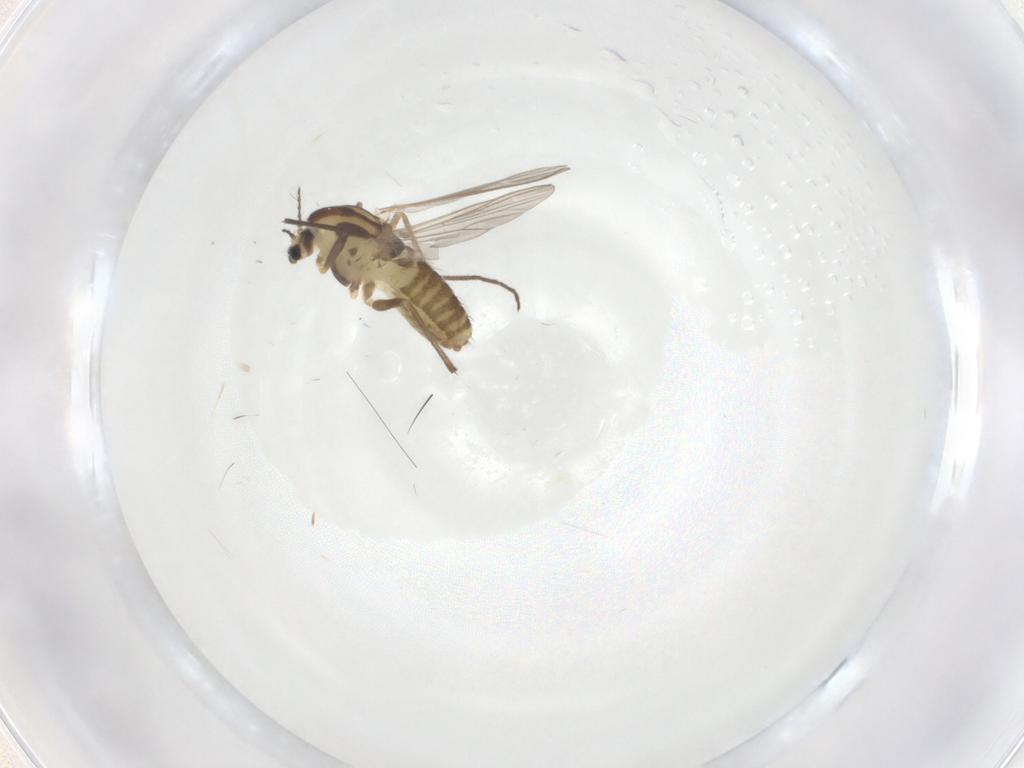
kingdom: Animalia
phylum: Arthropoda
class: Insecta
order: Diptera
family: Chironomidae
